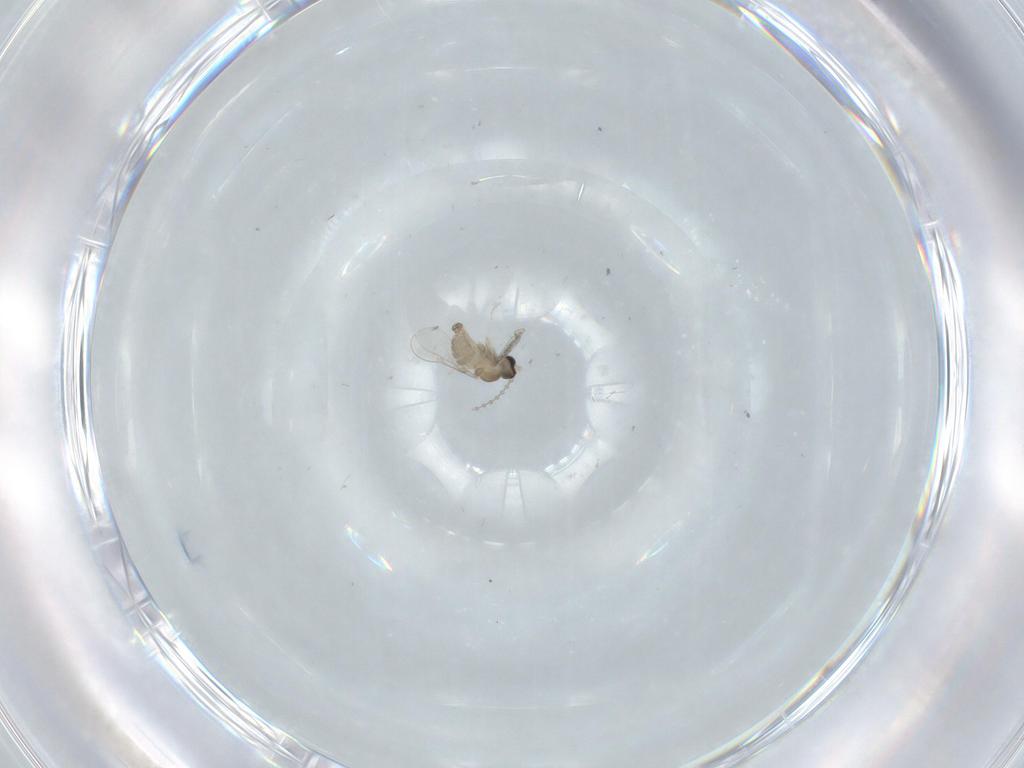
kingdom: Animalia
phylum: Arthropoda
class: Insecta
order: Diptera
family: Cecidomyiidae
